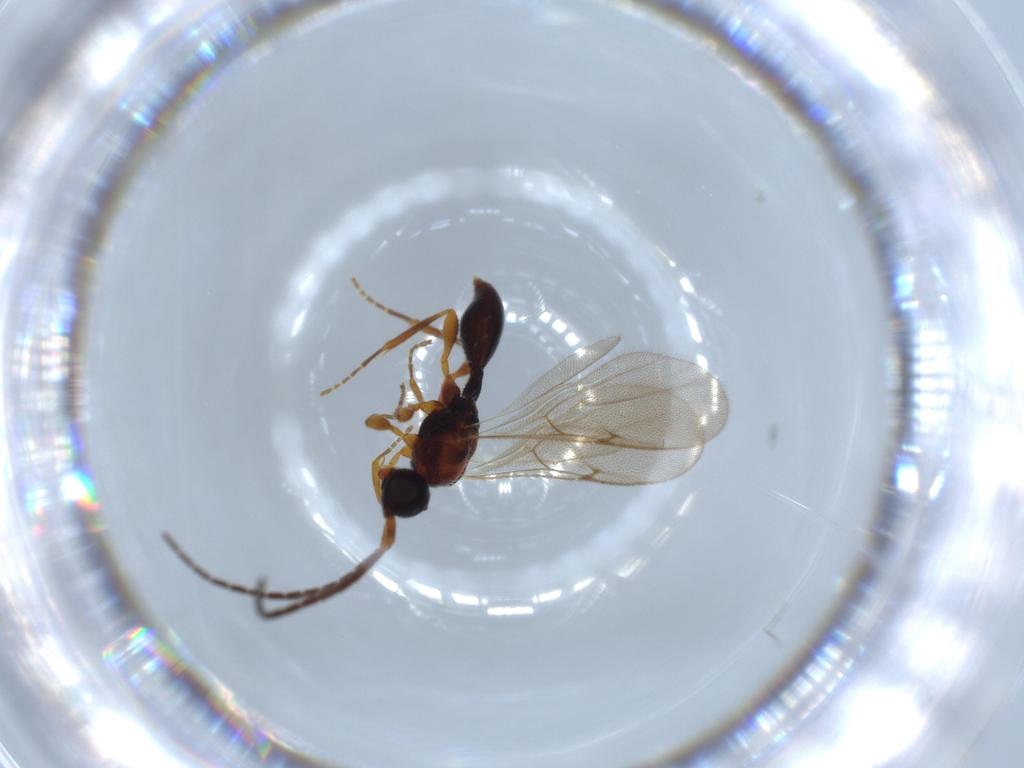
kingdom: Animalia
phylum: Arthropoda
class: Insecta
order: Hymenoptera
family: Diapriidae
